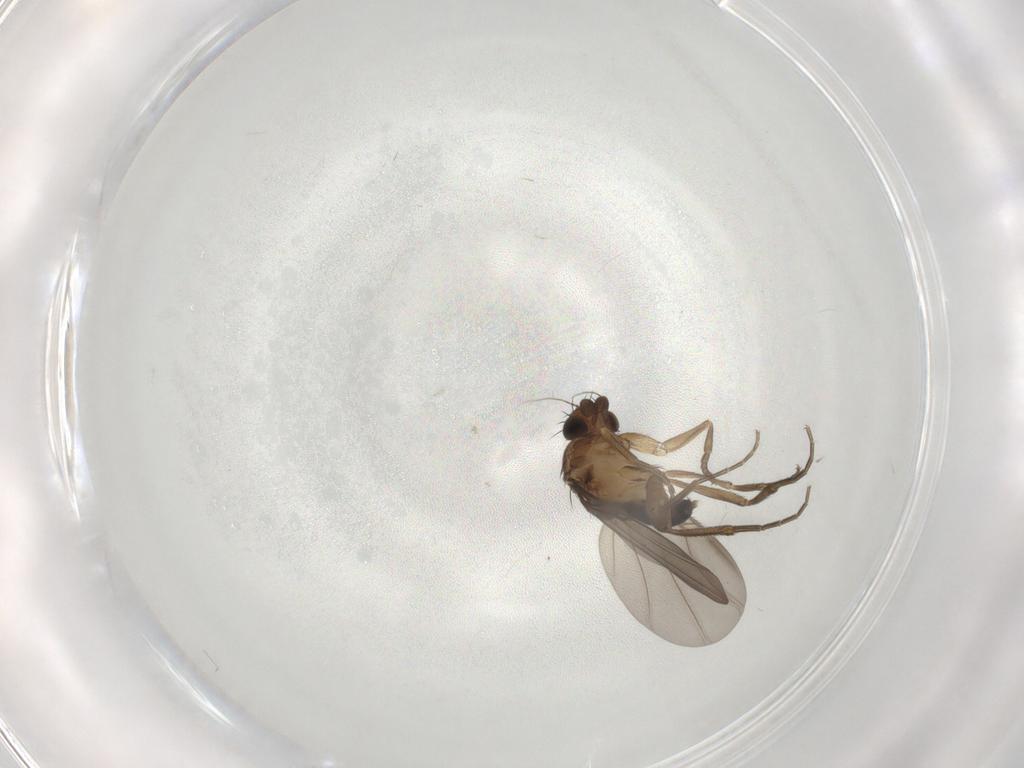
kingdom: Animalia
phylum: Arthropoda
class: Insecta
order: Diptera
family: Phoridae
